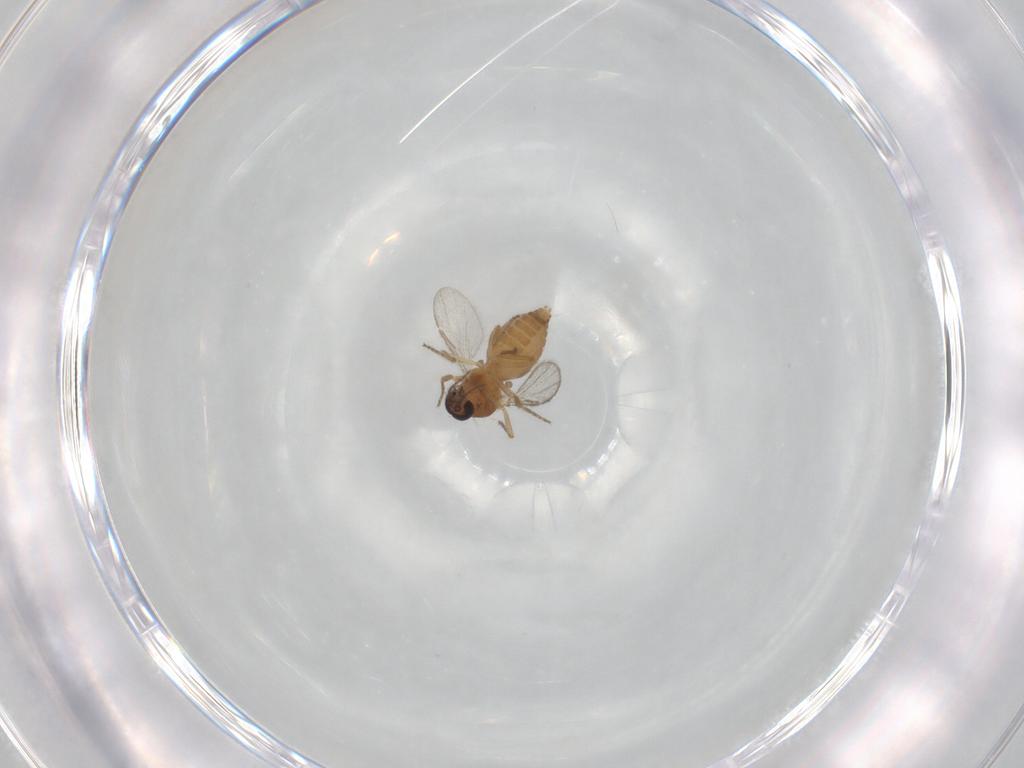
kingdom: Animalia
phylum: Arthropoda
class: Insecta
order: Diptera
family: Ceratopogonidae
